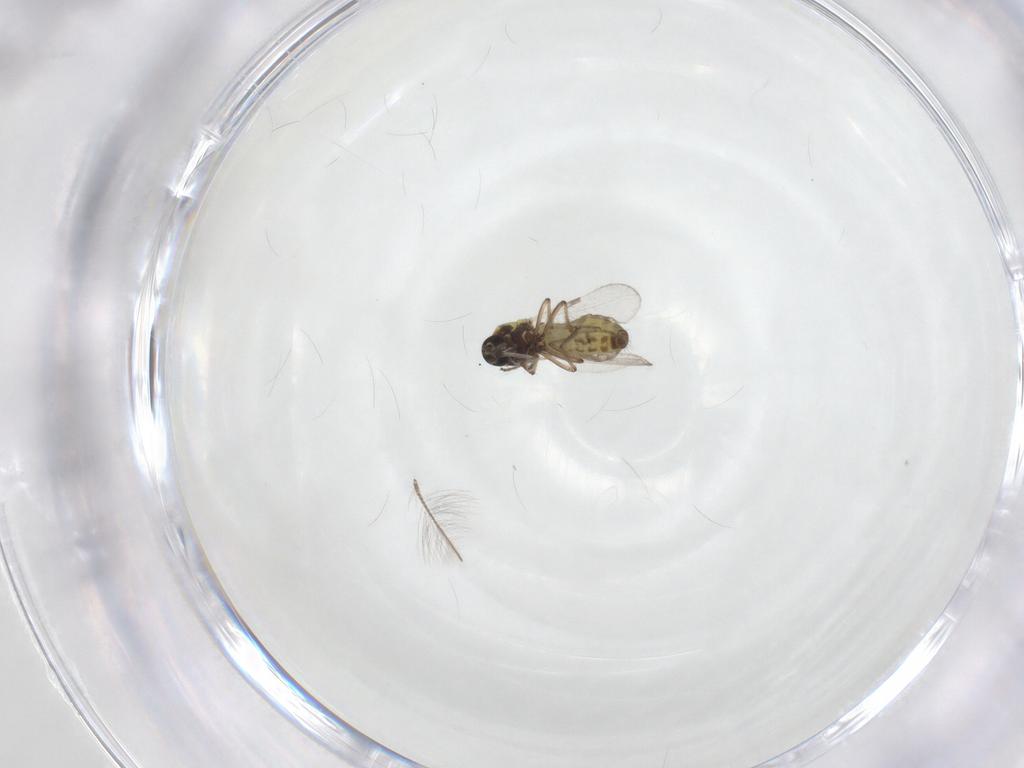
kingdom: Animalia
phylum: Arthropoda
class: Insecta
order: Diptera
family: Ceratopogonidae
